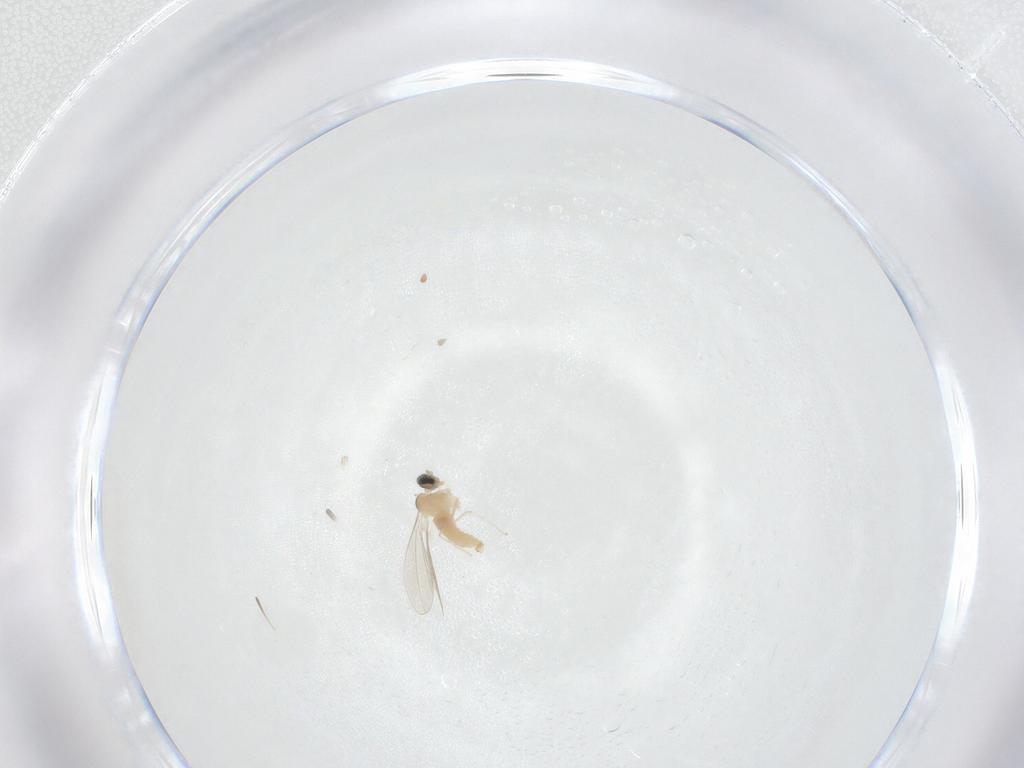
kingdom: Animalia
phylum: Arthropoda
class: Insecta
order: Diptera
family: Cecidomyiidae
